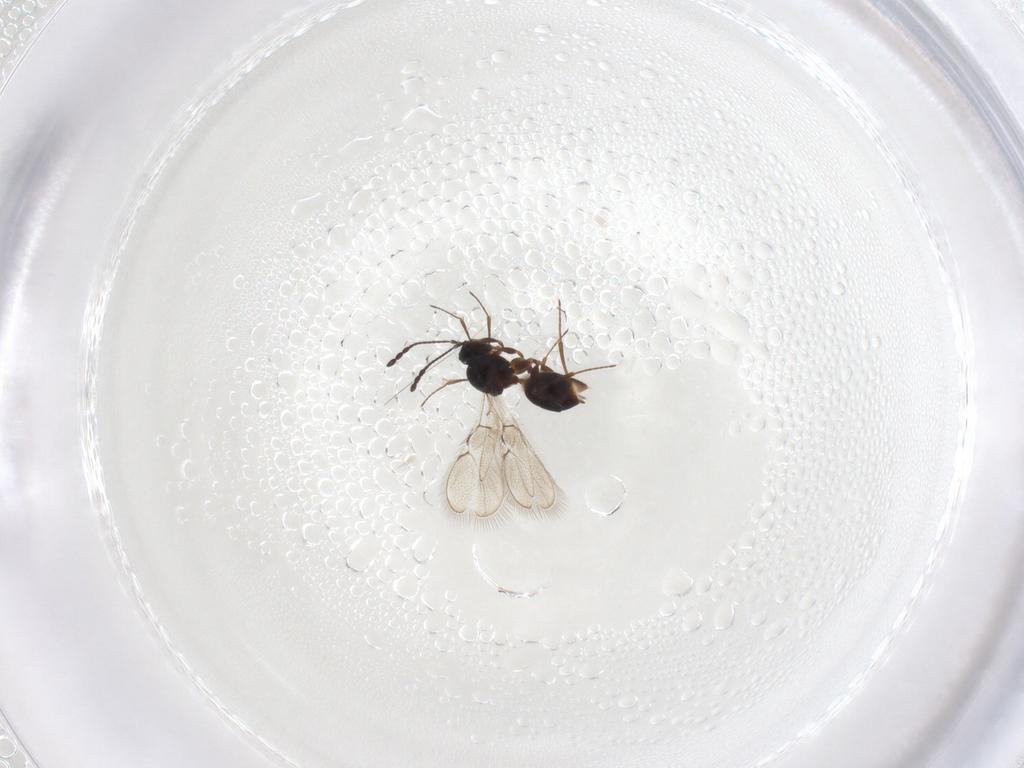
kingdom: Animalia
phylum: Arthropoda
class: Insecta
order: Hymenoptera
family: Figitidae
